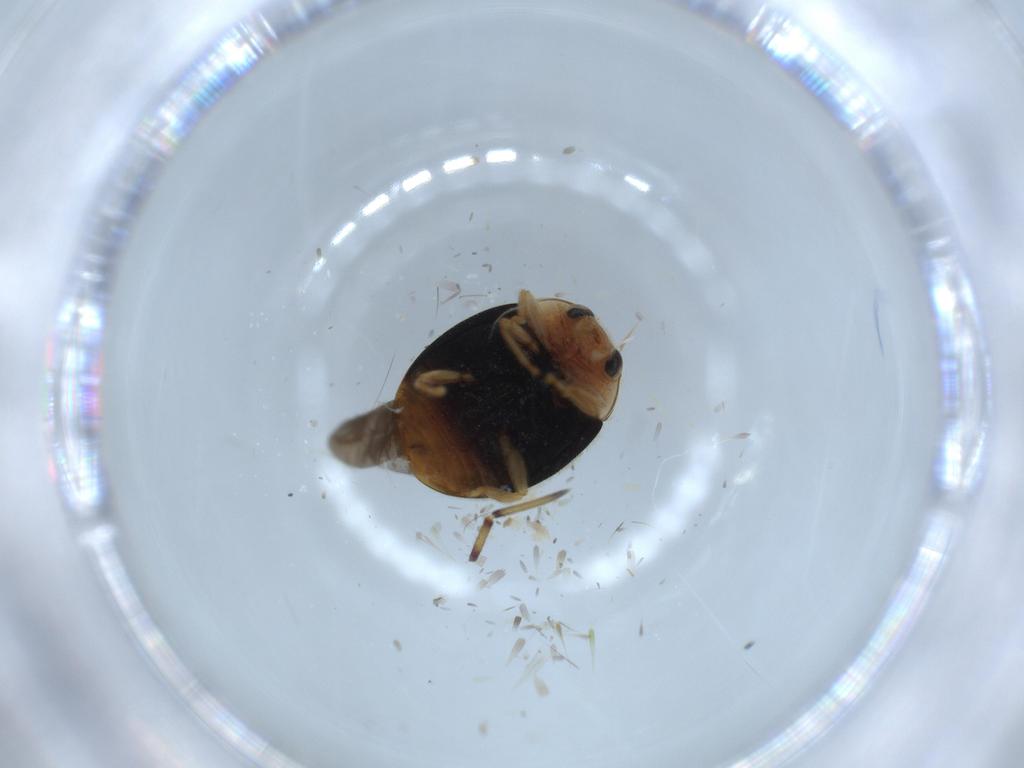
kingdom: Animalia
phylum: Arthropoda
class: Insecta
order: Coleoptera
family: Coccinellidae
